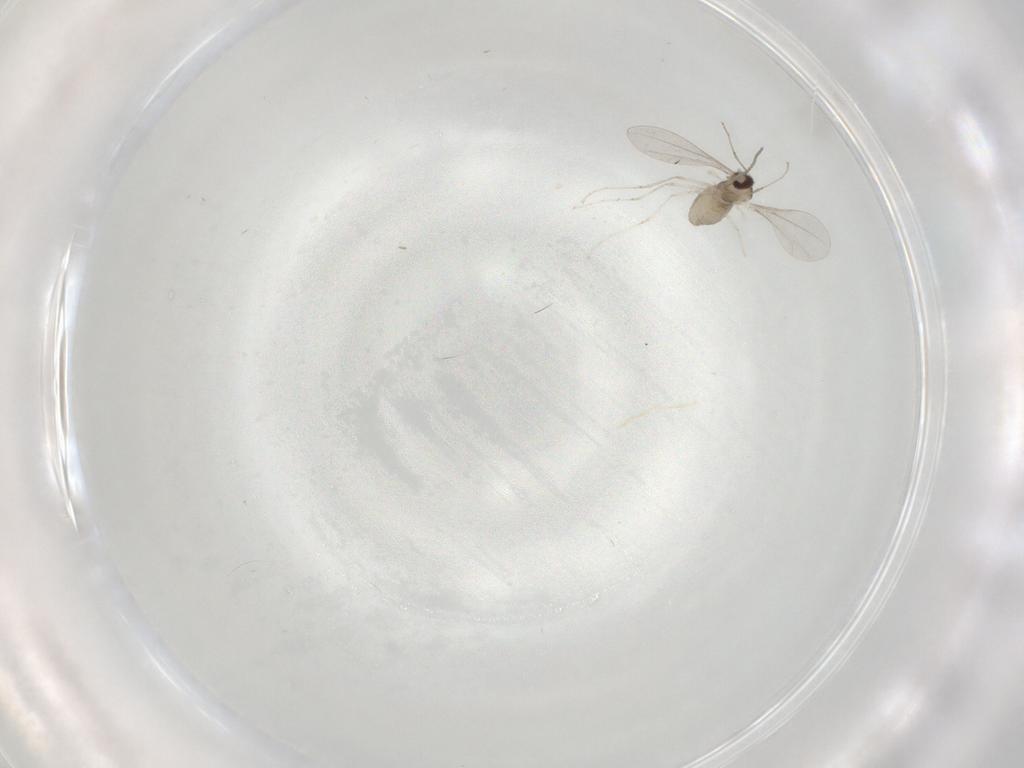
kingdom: Animalia
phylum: Arthropoda
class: Insecta
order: Diptera
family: Cecidomyiidae
